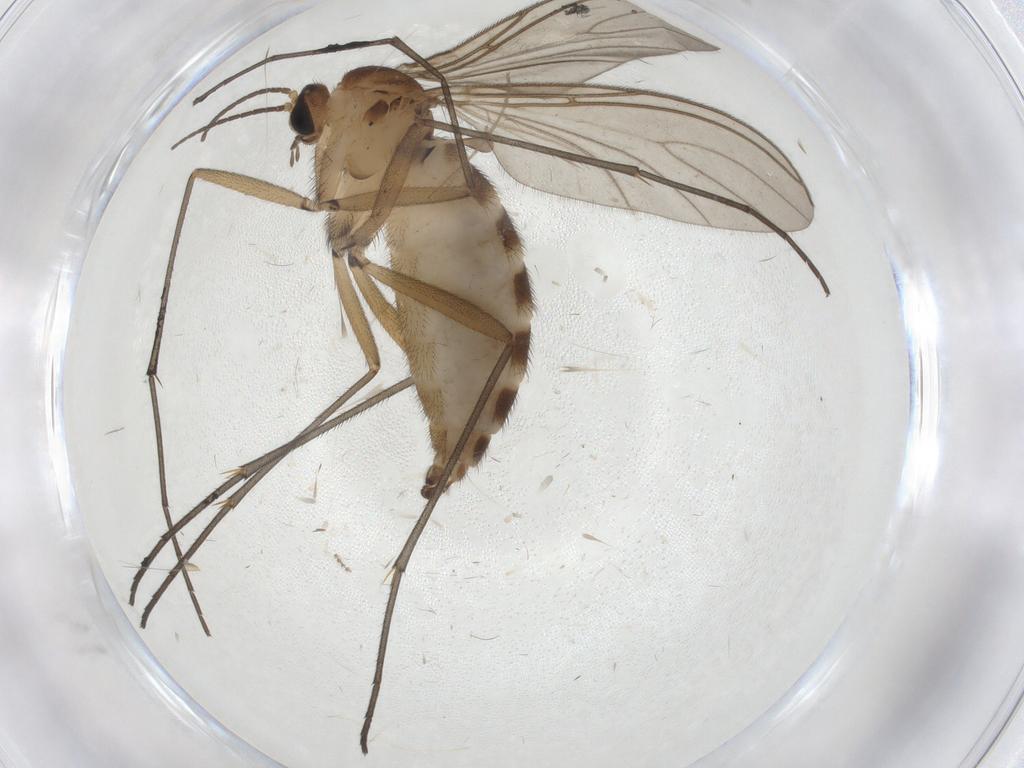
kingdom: Animalia
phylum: Arthropoda
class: Insecta
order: Diptera
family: Sciaridae
